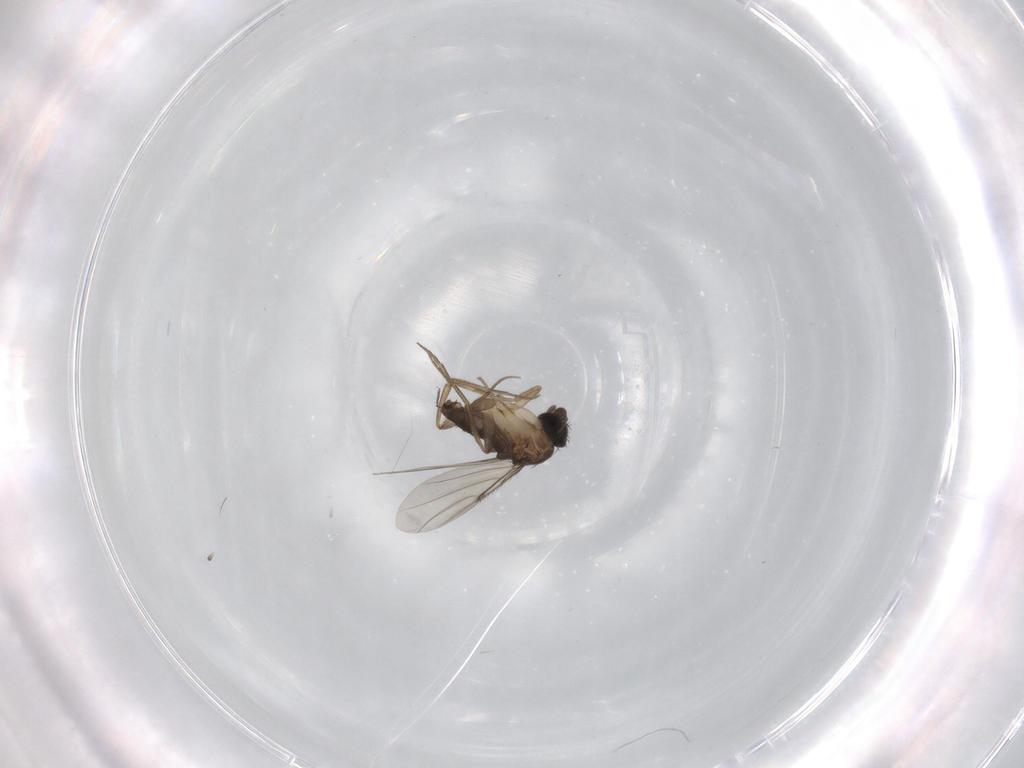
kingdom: Animalia
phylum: Arthropoda
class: Insecta
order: Diptera
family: Phoridae
